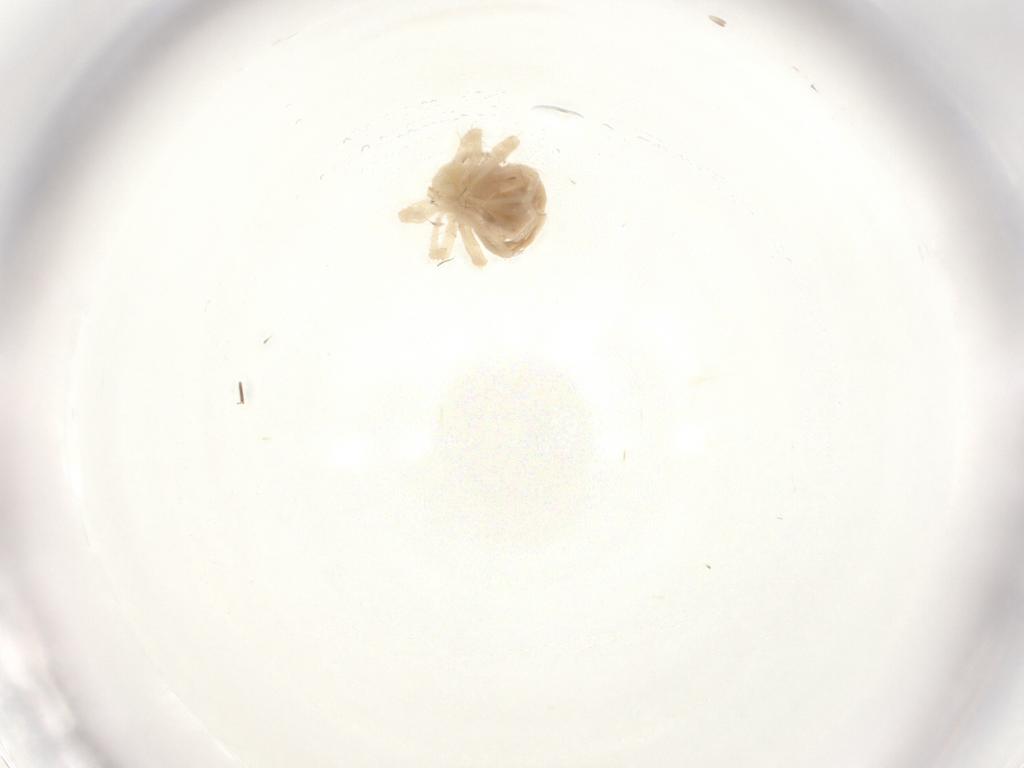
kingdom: Animalia
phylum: Arthropoda
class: Arachnida
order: Trombidiformes
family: Anystidae
